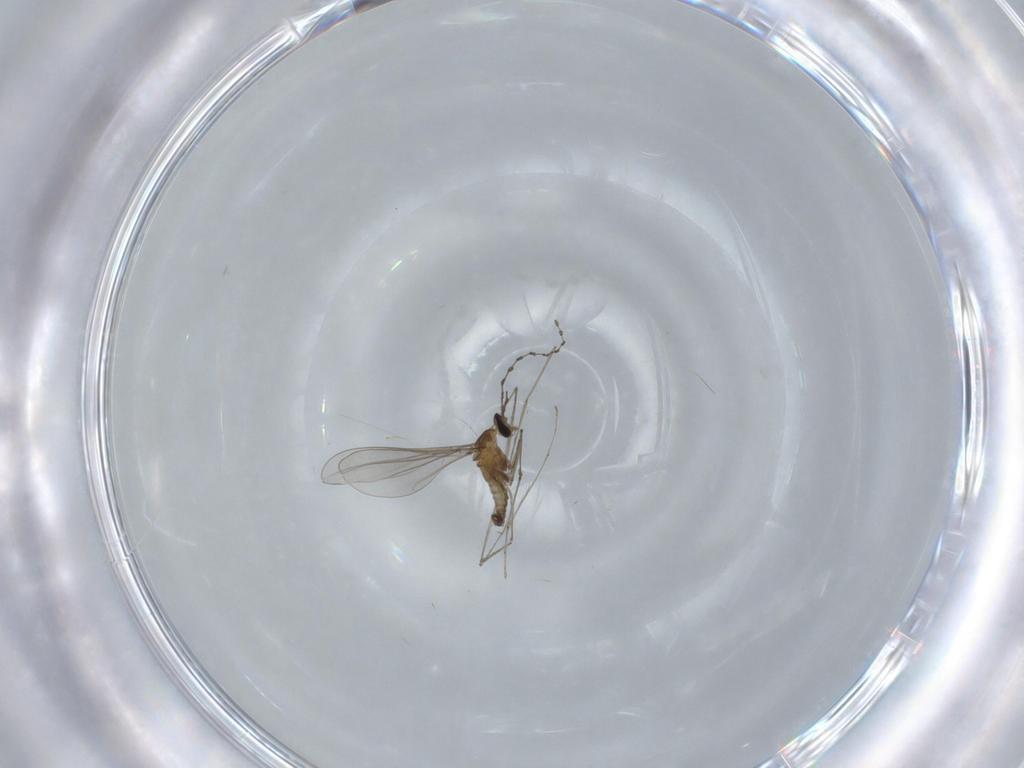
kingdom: Animalia
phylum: Arthropoda
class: Insecta
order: Diptera
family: Cecidomyiidae
